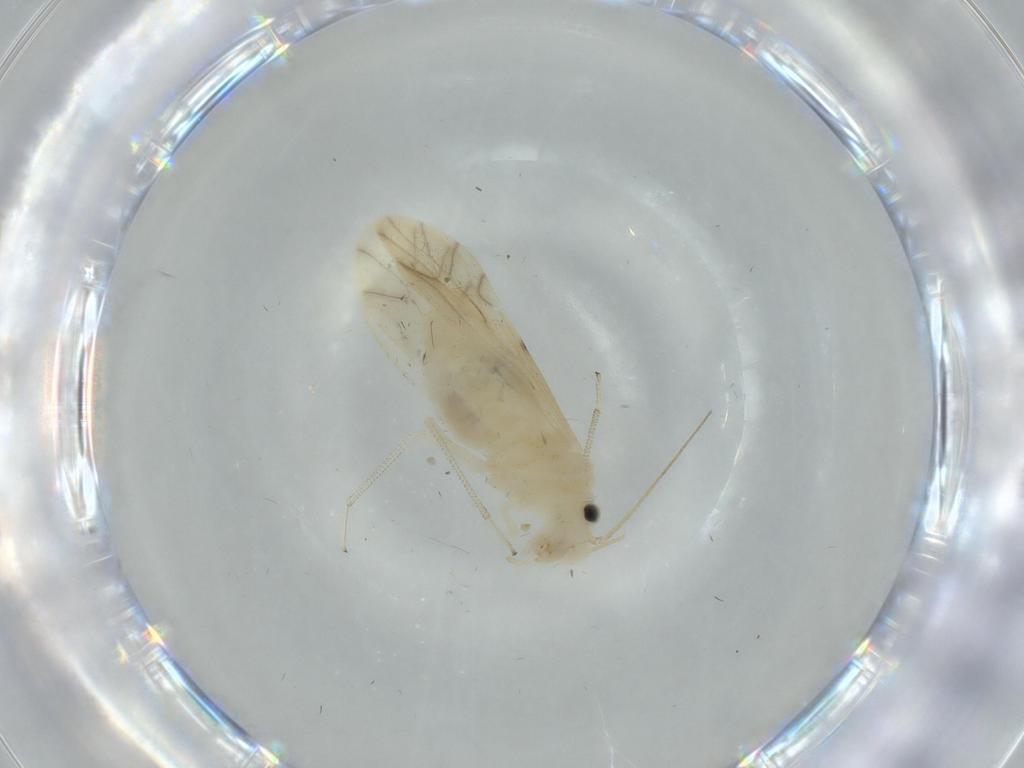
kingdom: Animalia
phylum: Arthropoda
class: Insecta
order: Psocodea
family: Caeciliusidae
